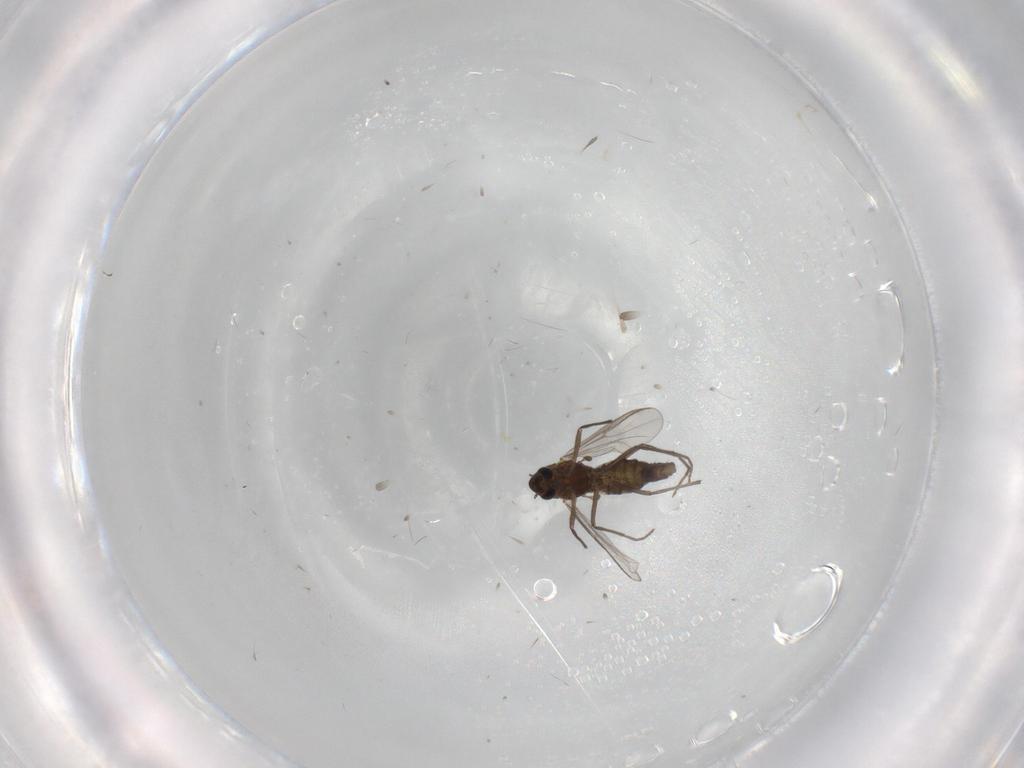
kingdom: Animalia
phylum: Arthropoda
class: Insecta
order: Diptera
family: Chironomidae
